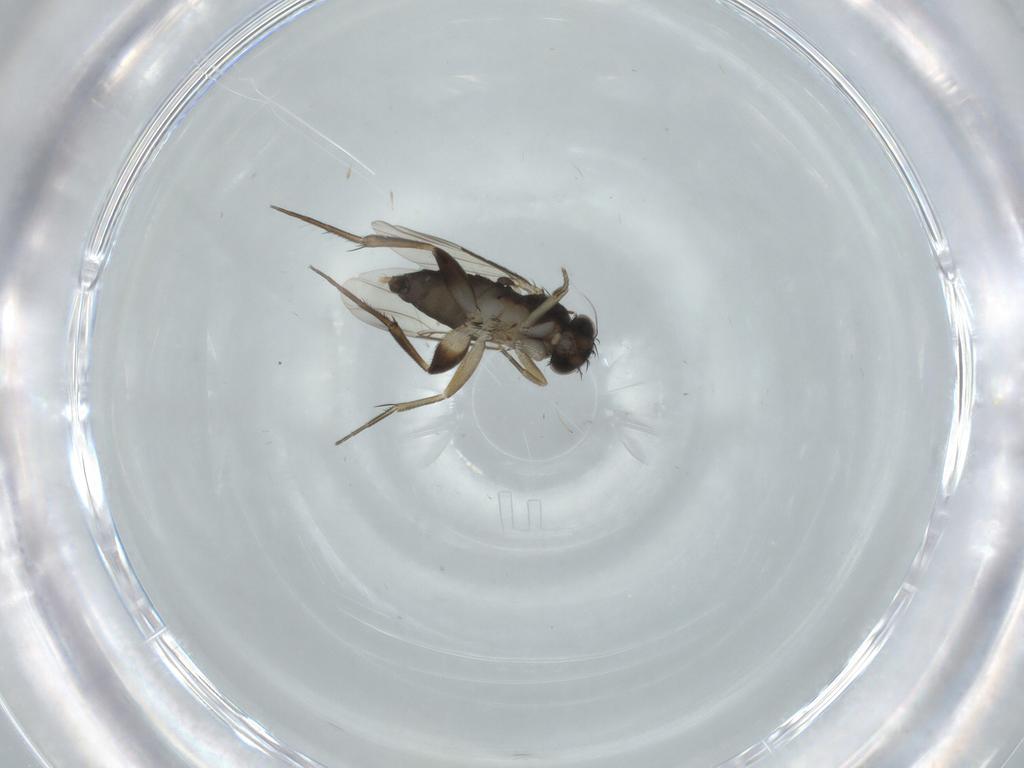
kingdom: Animalia
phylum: Arthropoda
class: Insecta
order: Diptera
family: Phoridae
